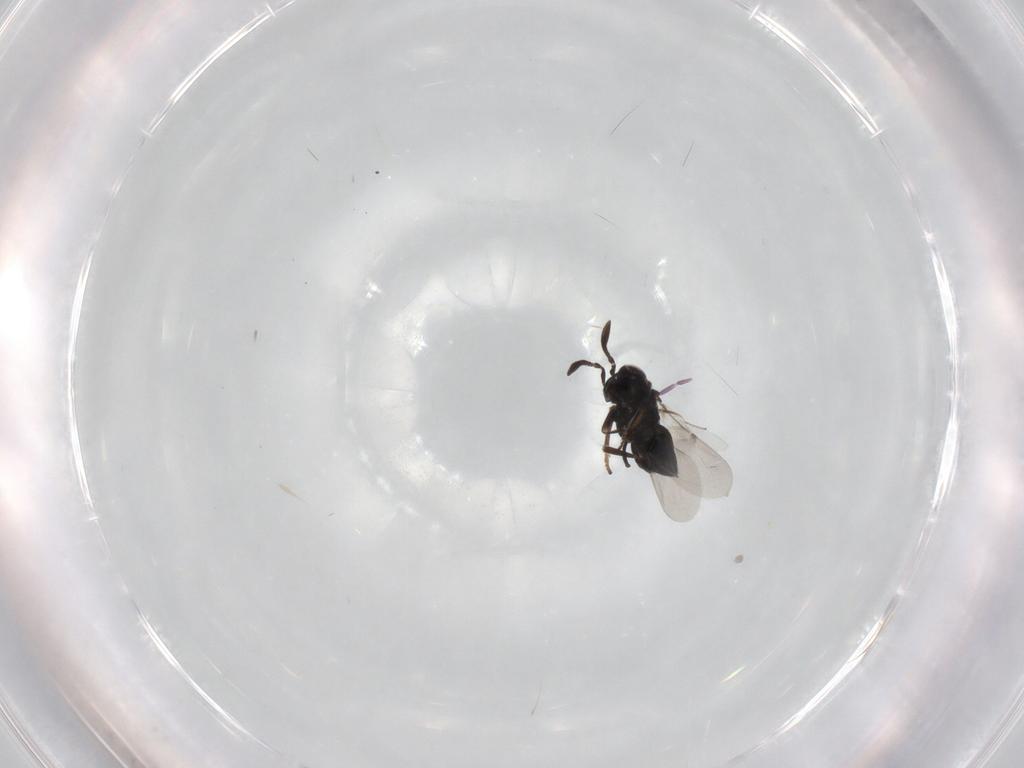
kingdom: Animalia
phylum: Arthropoda
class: Insecta
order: Hymenoptera
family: Encyrtidae
